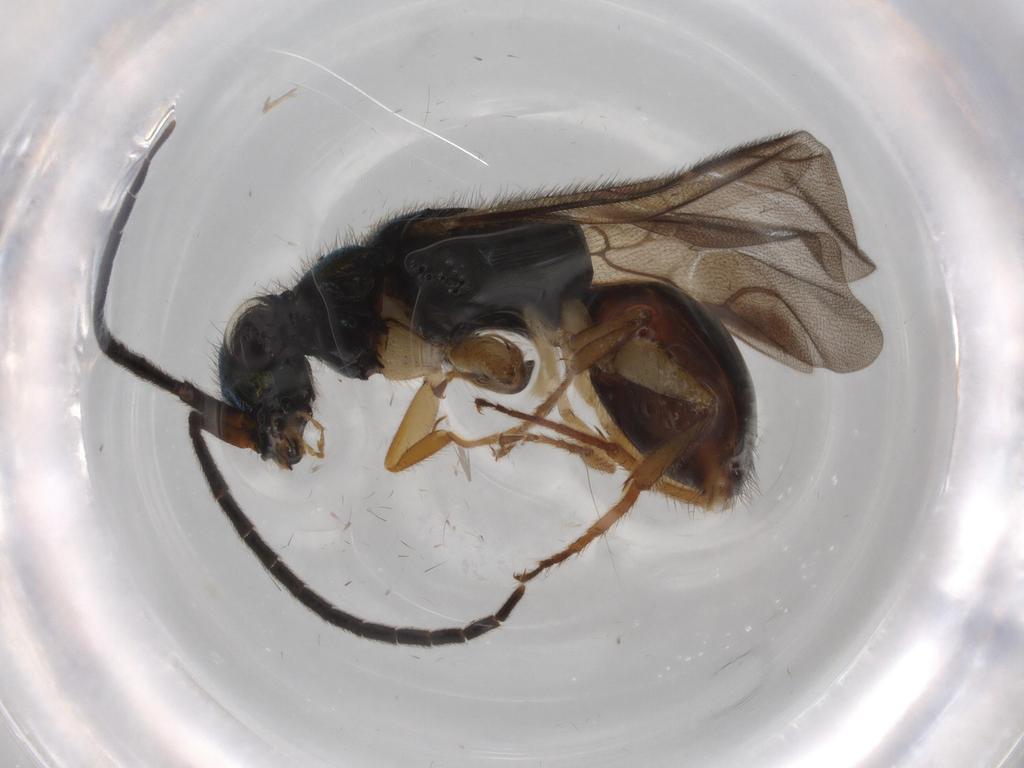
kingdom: Animalia
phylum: Arthropoda
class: Insecta
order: Hymenoptera
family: Chrysididae
